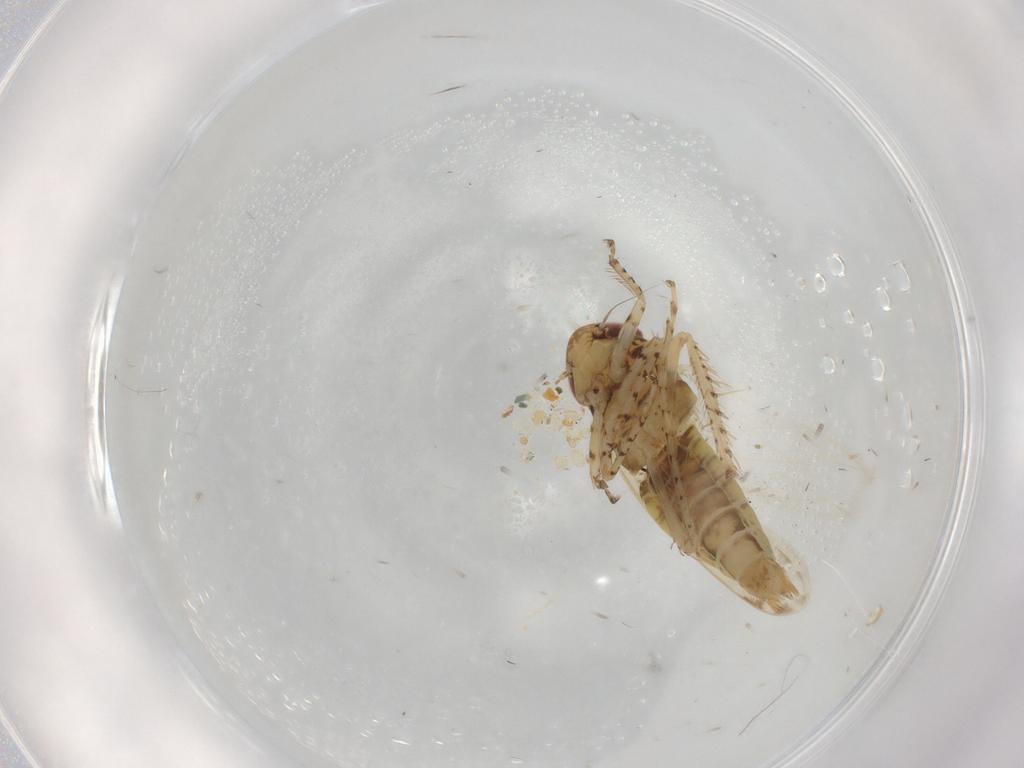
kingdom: Animalia
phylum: Arthropoda
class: Insecta
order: Hemiptera
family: Cicadellidae
